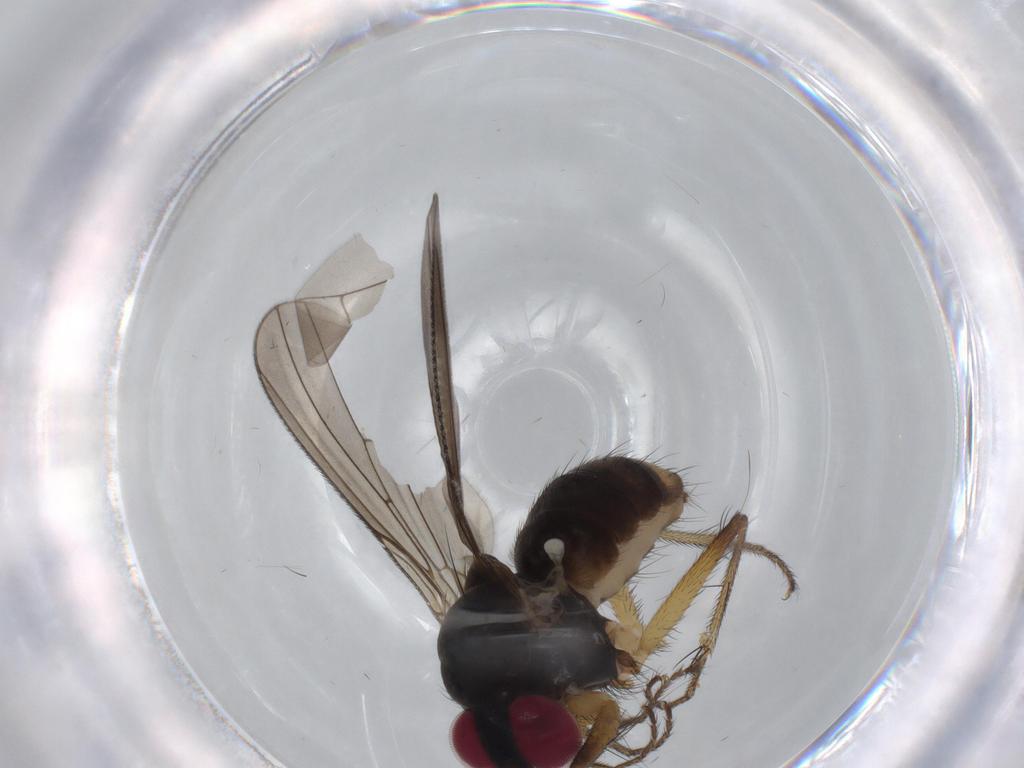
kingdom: Animalia
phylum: Arthropoda
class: Insecta
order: Diptera
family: Anthomyiidae
